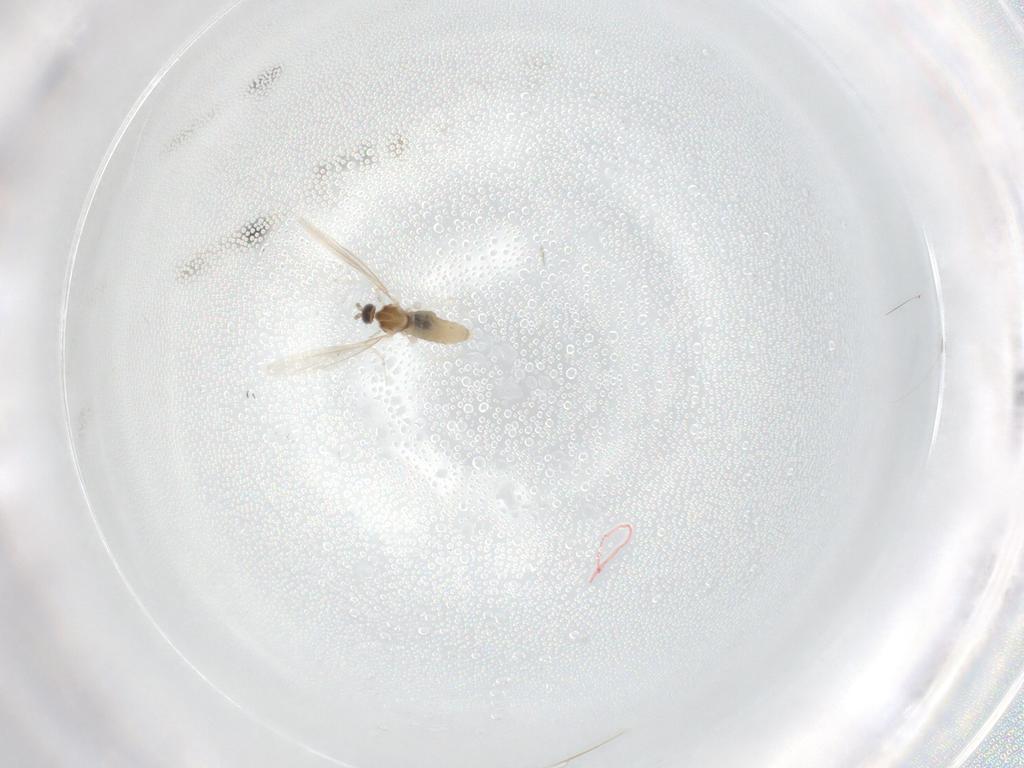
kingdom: Animalia
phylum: Arthropoda
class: Insecta
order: Diptera
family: Cecidomyiidae
